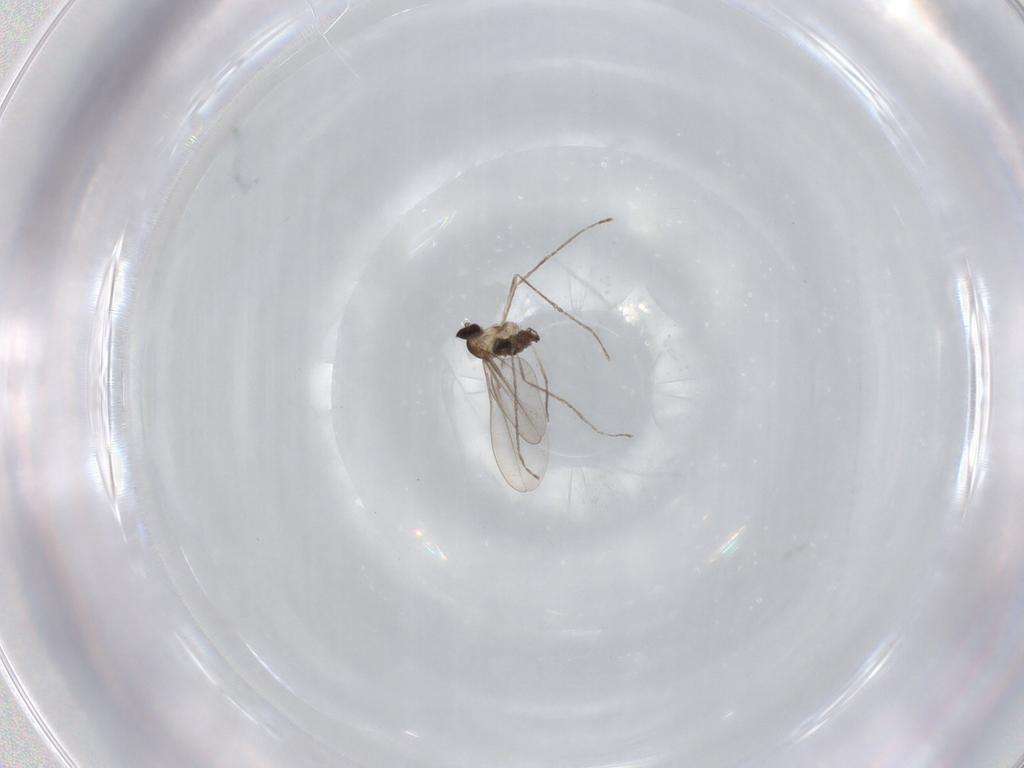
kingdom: Animalia
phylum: Arthropoda
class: Insecta
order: Diptera
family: Cecidomyiidae
